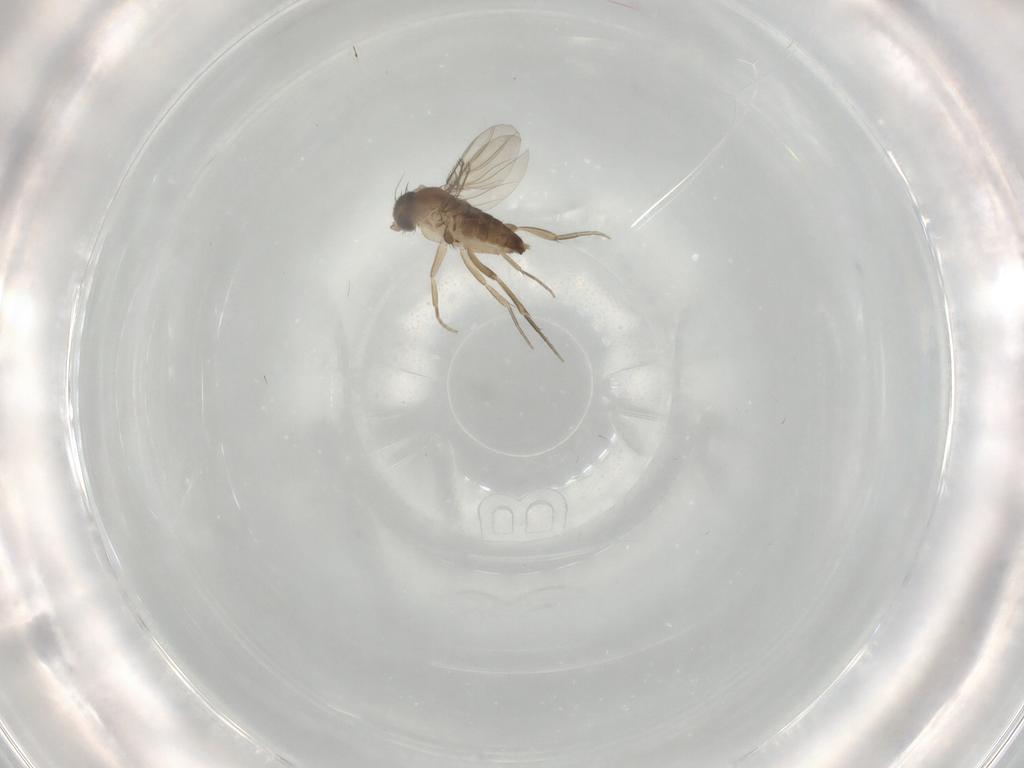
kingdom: Animalia
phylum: Arthropoda
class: Insecta
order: Diptera
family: Phoridae
